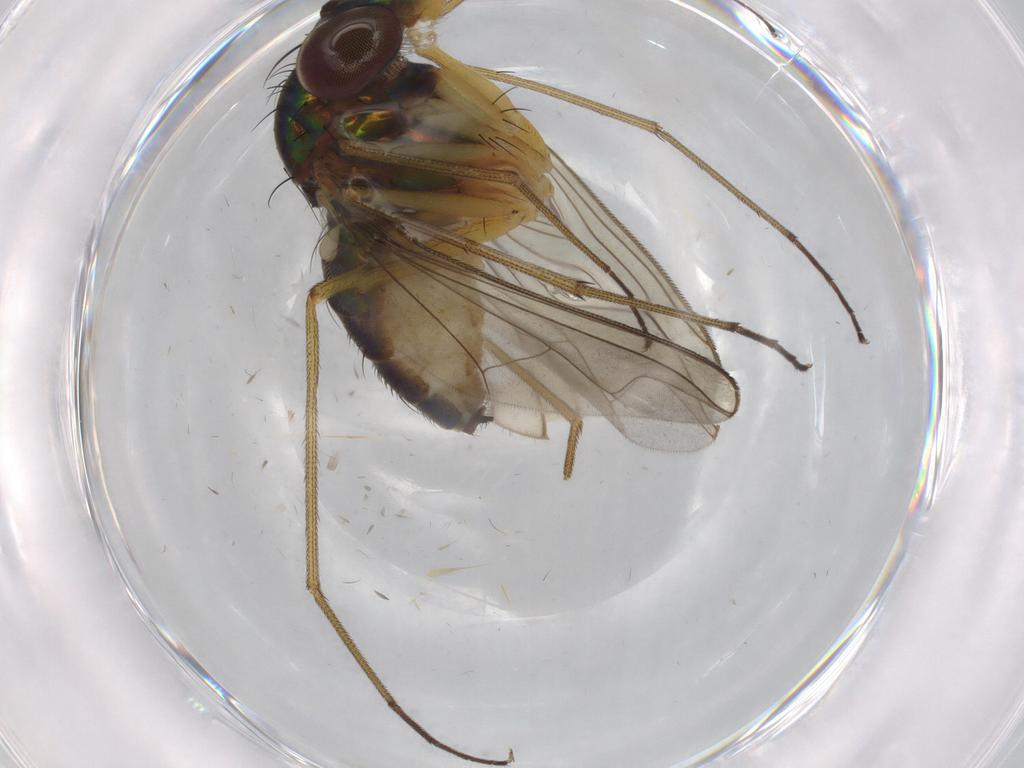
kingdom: Animalia
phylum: Arthropoda
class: Insecta
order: Diptera
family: Dolichopodidae
